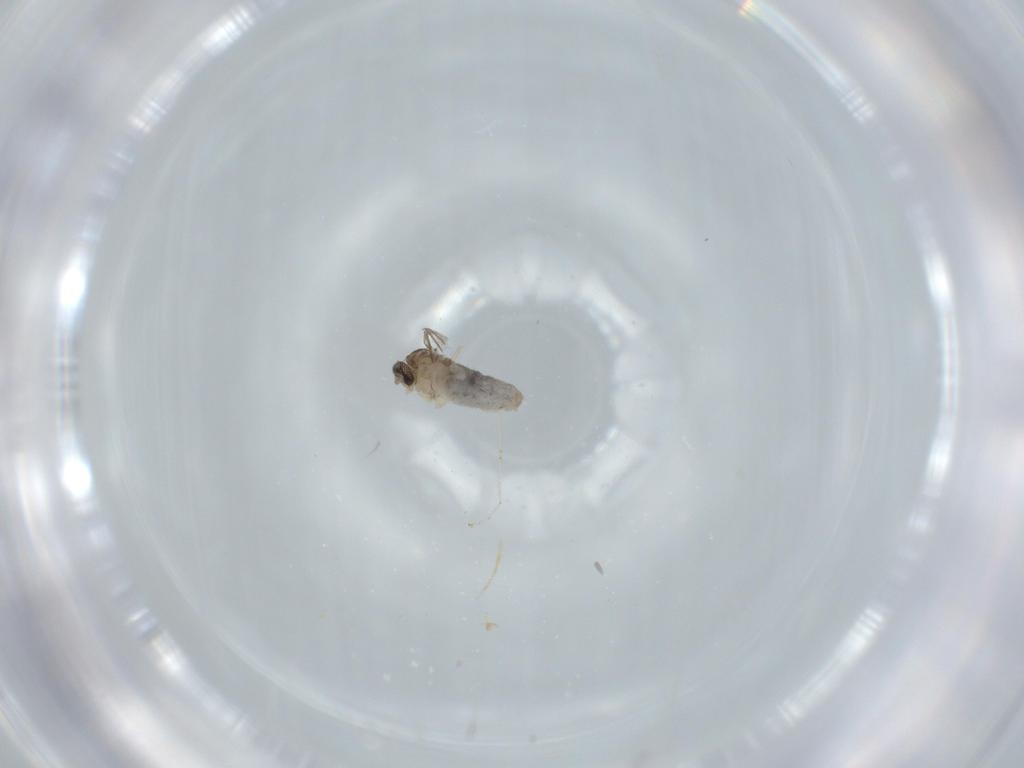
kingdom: Animalia
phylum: Arthropoda
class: Insecta
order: Diptera
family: Cecidomyiidae
